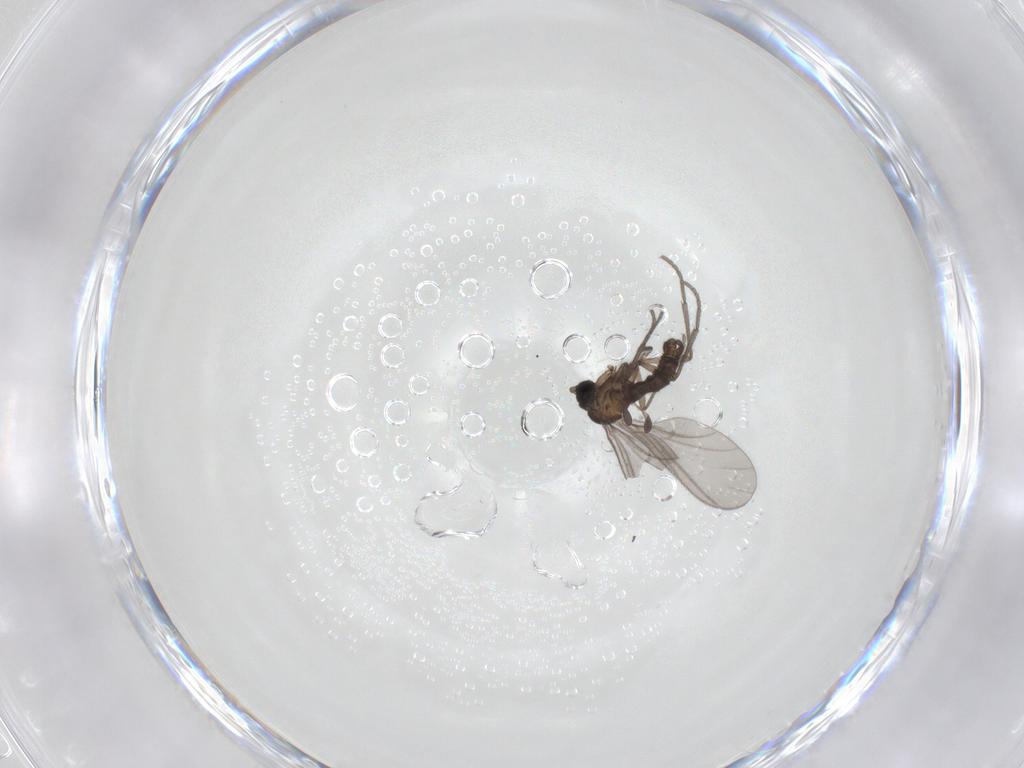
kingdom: Animalia
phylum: Arthropoda
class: Insecta
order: Diptera
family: Sciaridae
